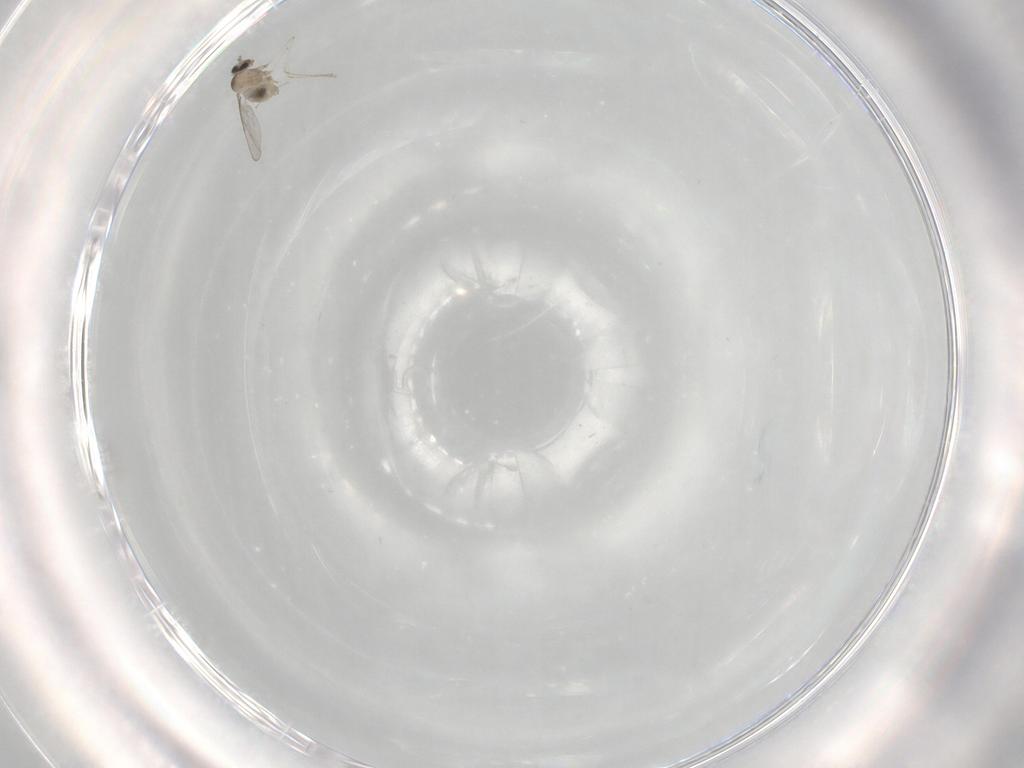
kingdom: Animalia
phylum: Arthropoda
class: Insecta
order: Diptera
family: Cecidomyiidae
